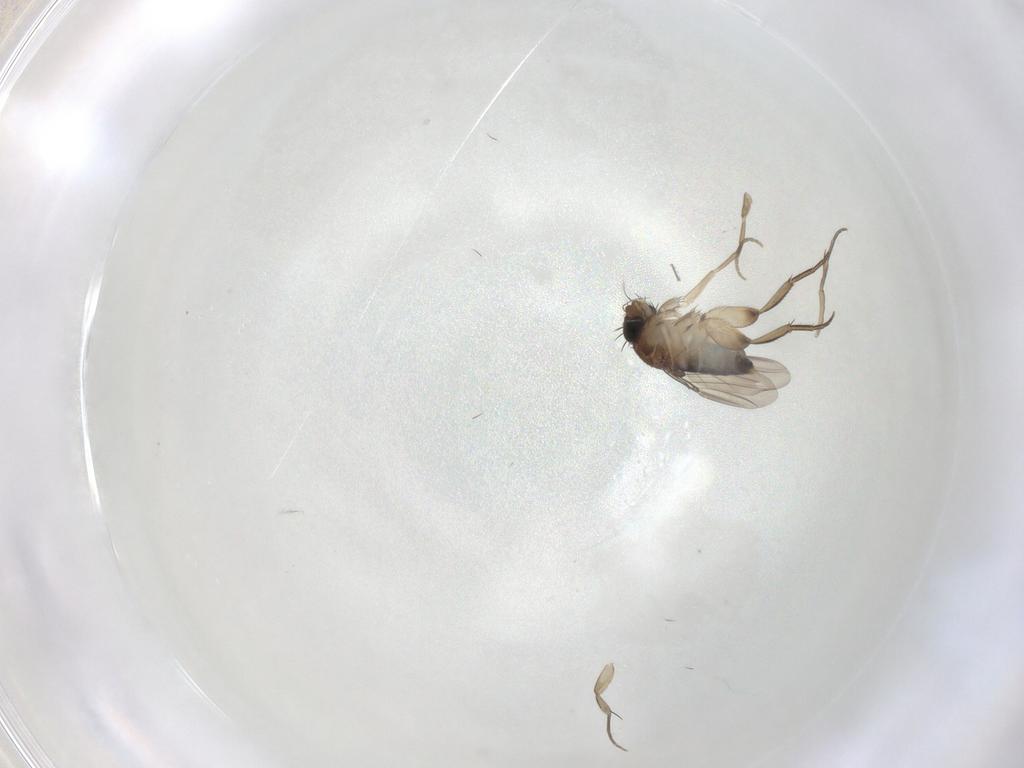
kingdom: Animalia
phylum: Arthropoda
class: Insecta
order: Diptera
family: Phoridae
